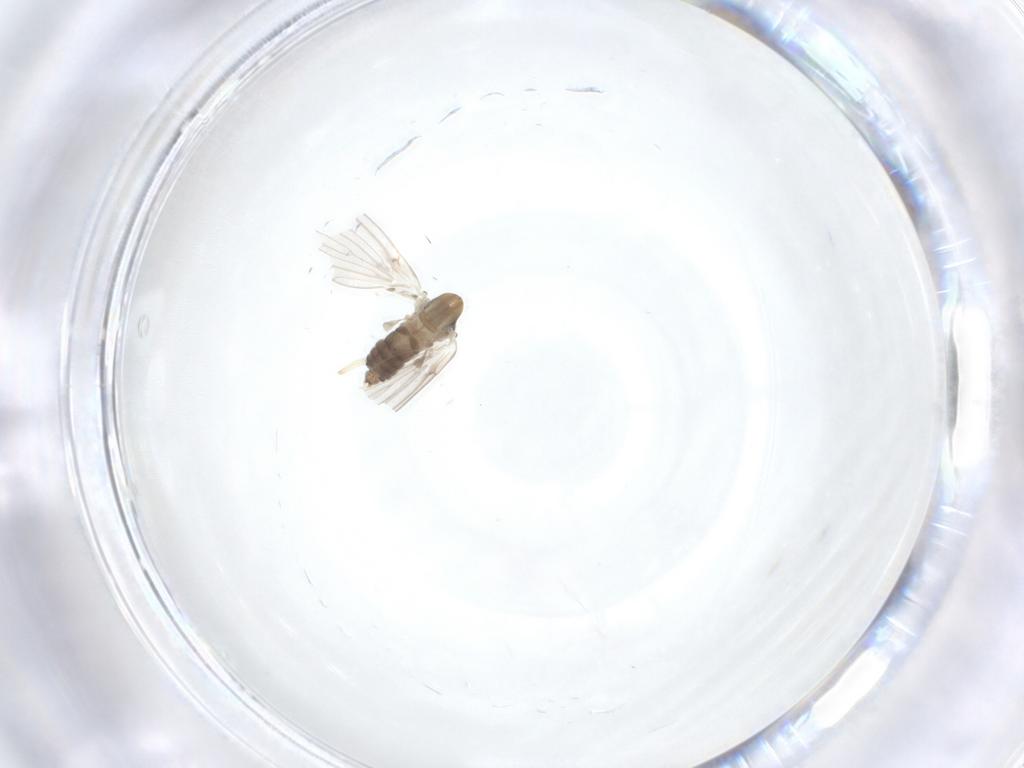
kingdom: Animalia
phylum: Arthropoda
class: Insecta
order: Diptera
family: Psychodidae
